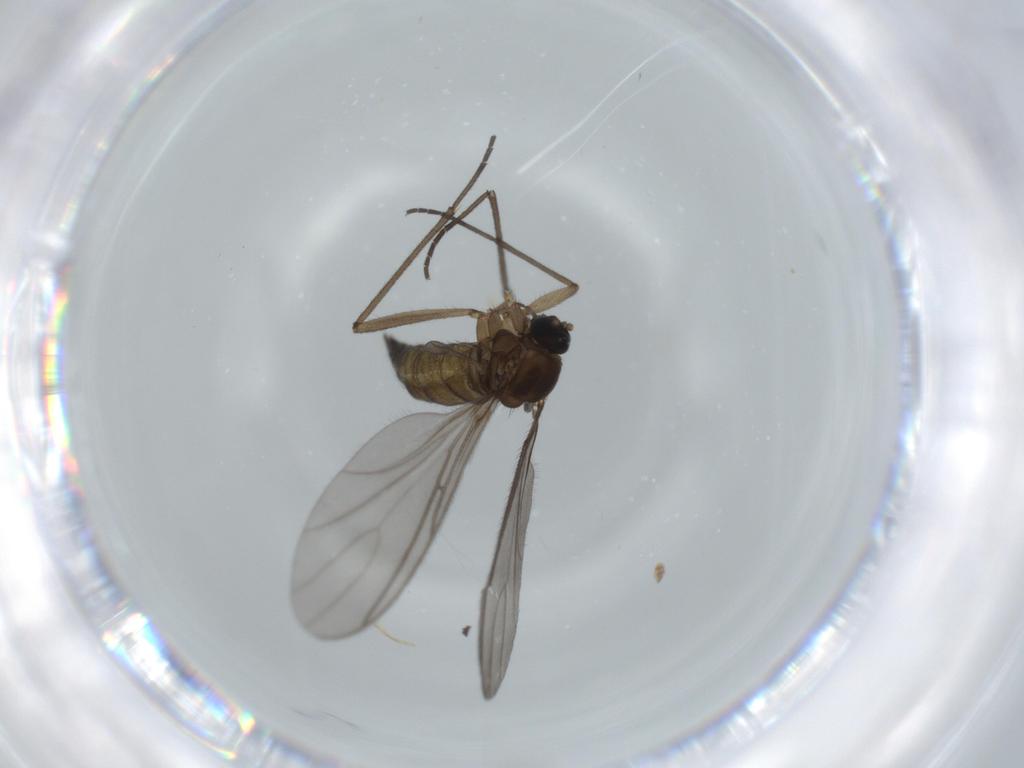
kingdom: Animalia
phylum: Arthropoda
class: Insecta
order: Diptera
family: Sciaridae
